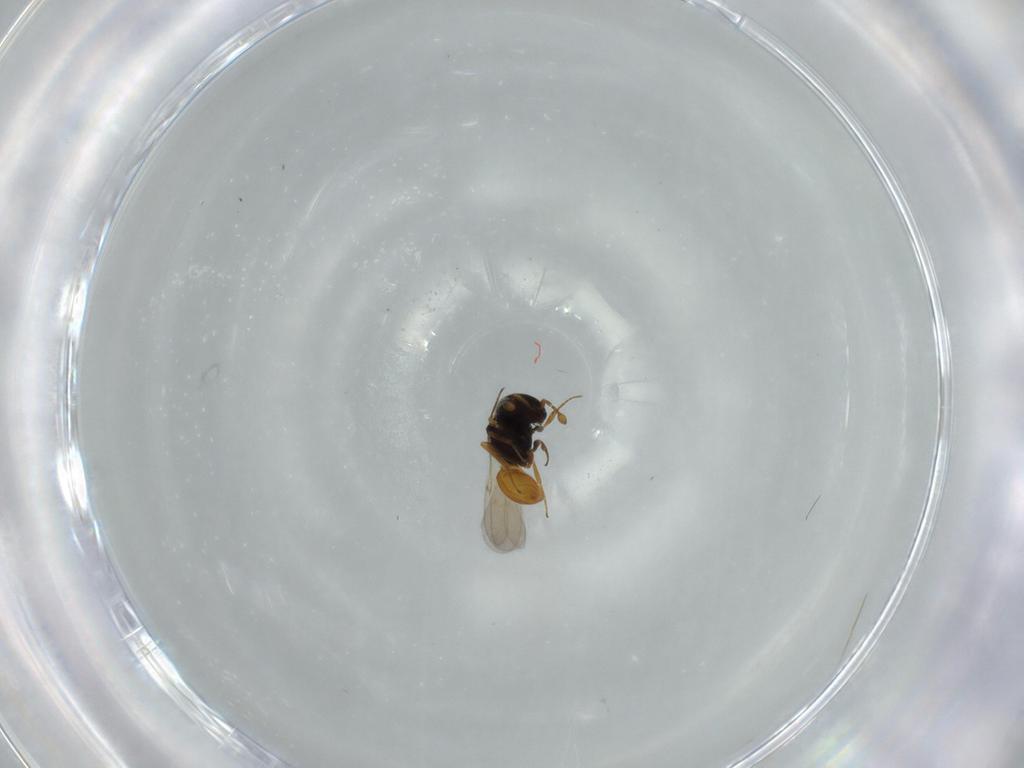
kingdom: Animalia
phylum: Arthropoda
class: Insecta
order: Hymenoptera
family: Scelionidae
